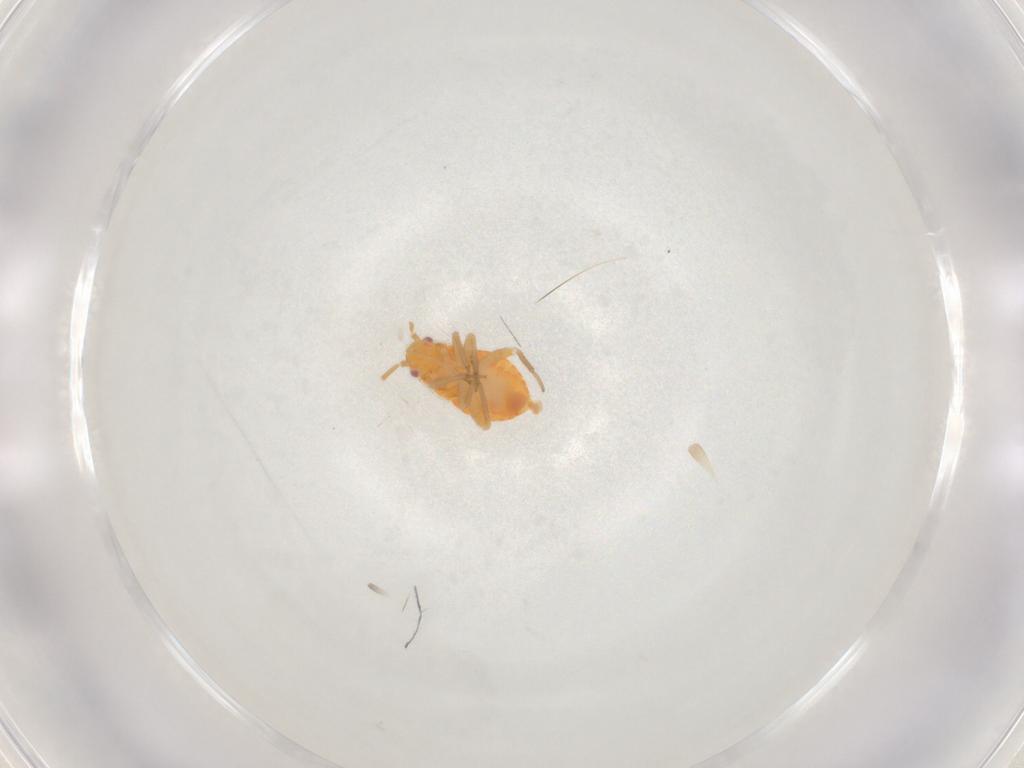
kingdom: Animalia
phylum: Arthropoda
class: Insecta
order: Hemiptera
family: Miridae
